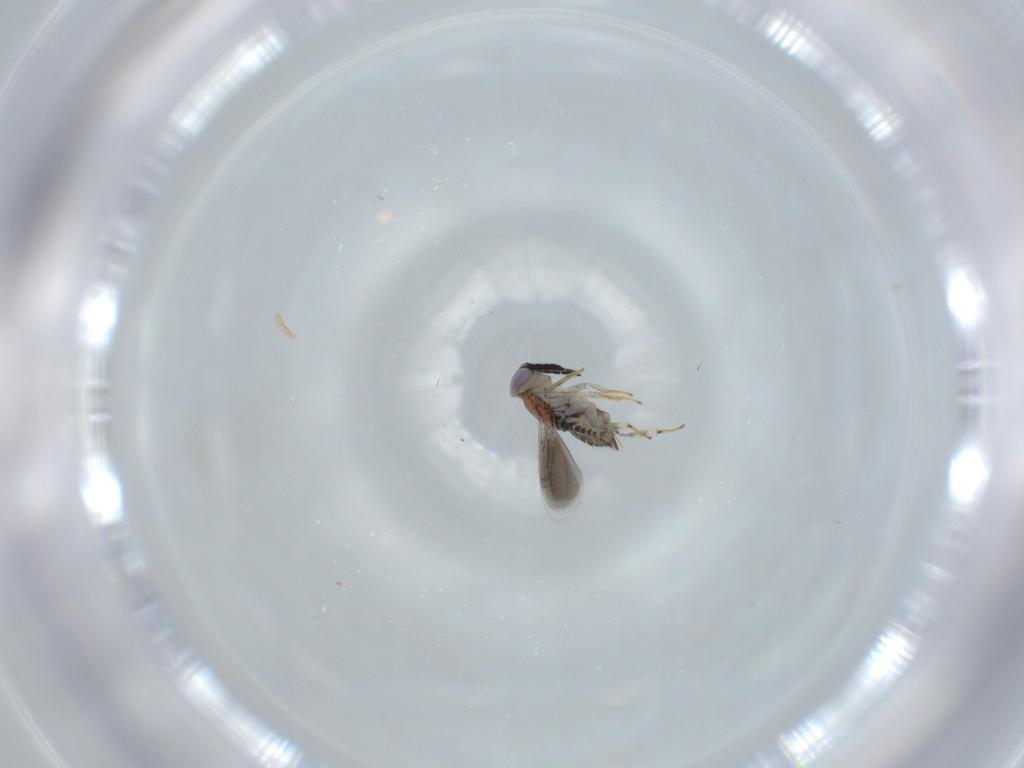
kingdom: Animalia
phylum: Arthropoda
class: Insecta
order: Hymenoptera
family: Aphelinidae
